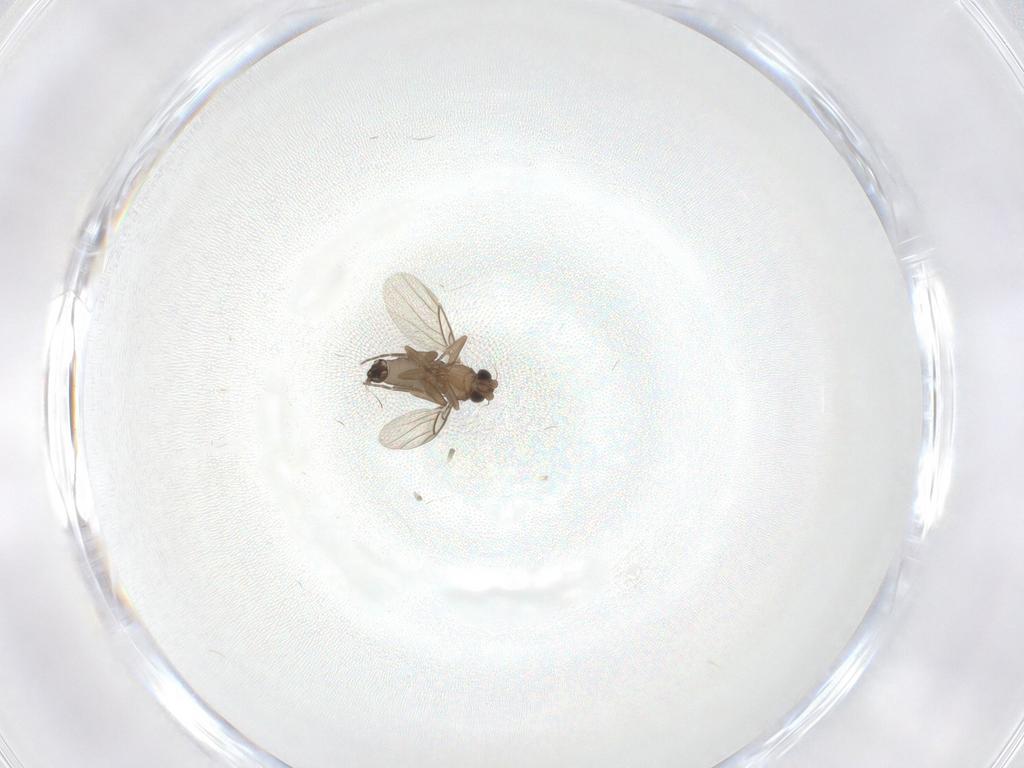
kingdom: Animalia
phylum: Arthropoda
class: Insecta
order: Diptera
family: Phoridae
